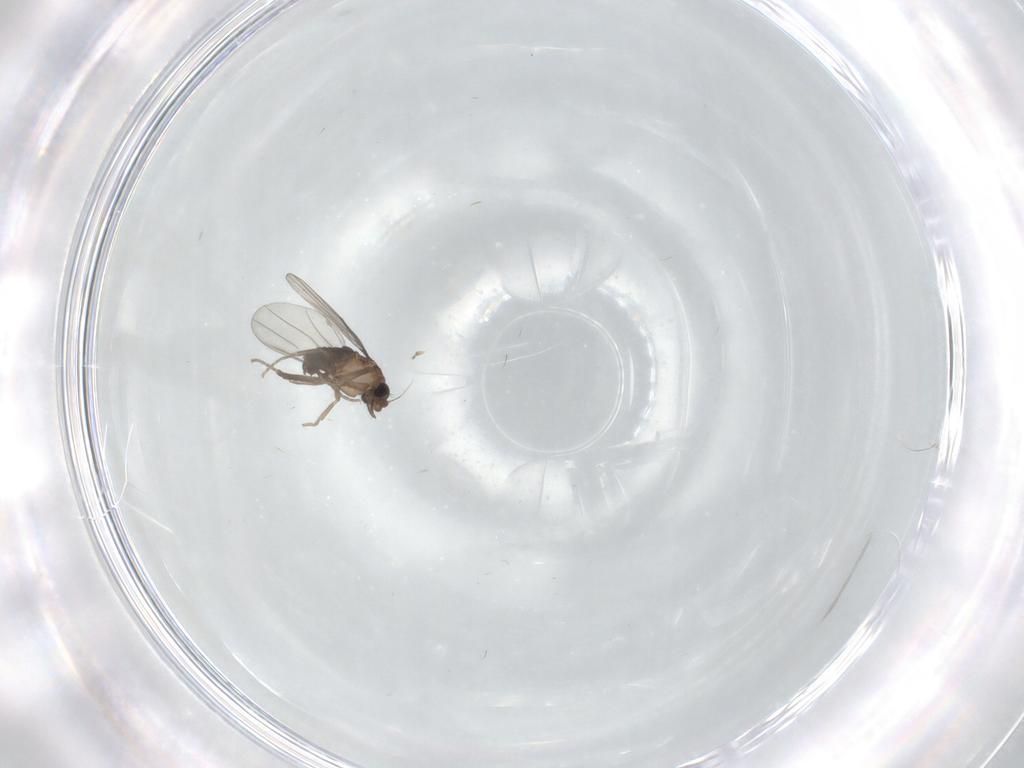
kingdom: Animalia
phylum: Arthropoda
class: Insecta
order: Diptera
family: Phoridae
